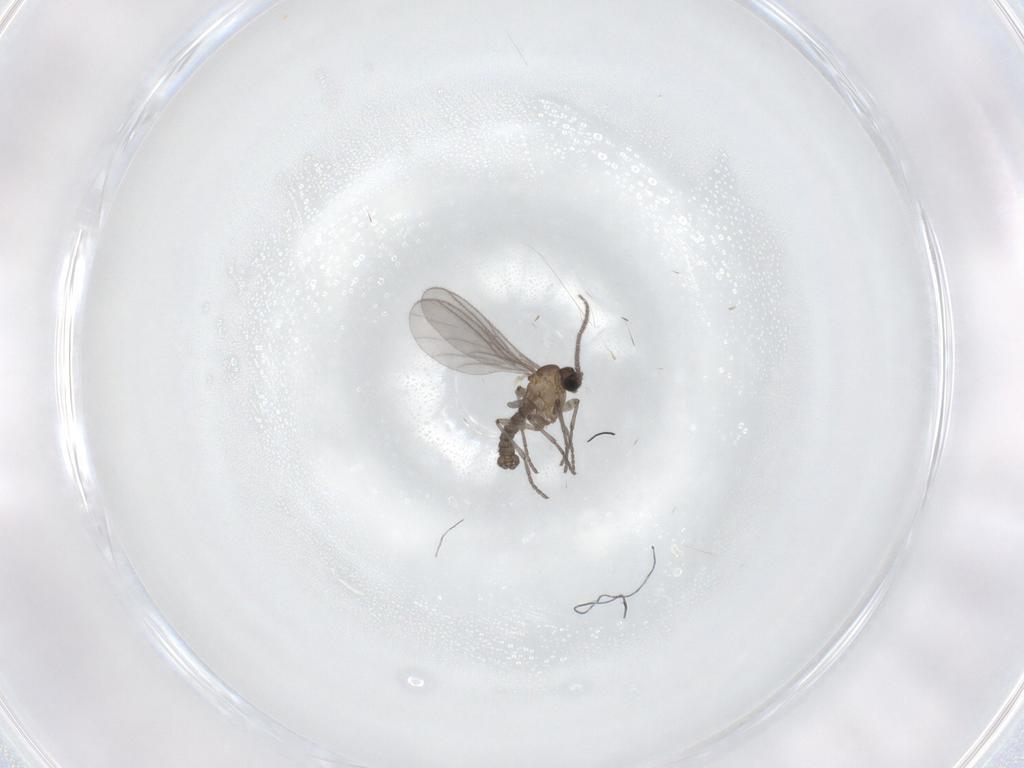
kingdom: Animalia
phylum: Arthropoda
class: Insecta
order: Diptera
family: Sciaridae
